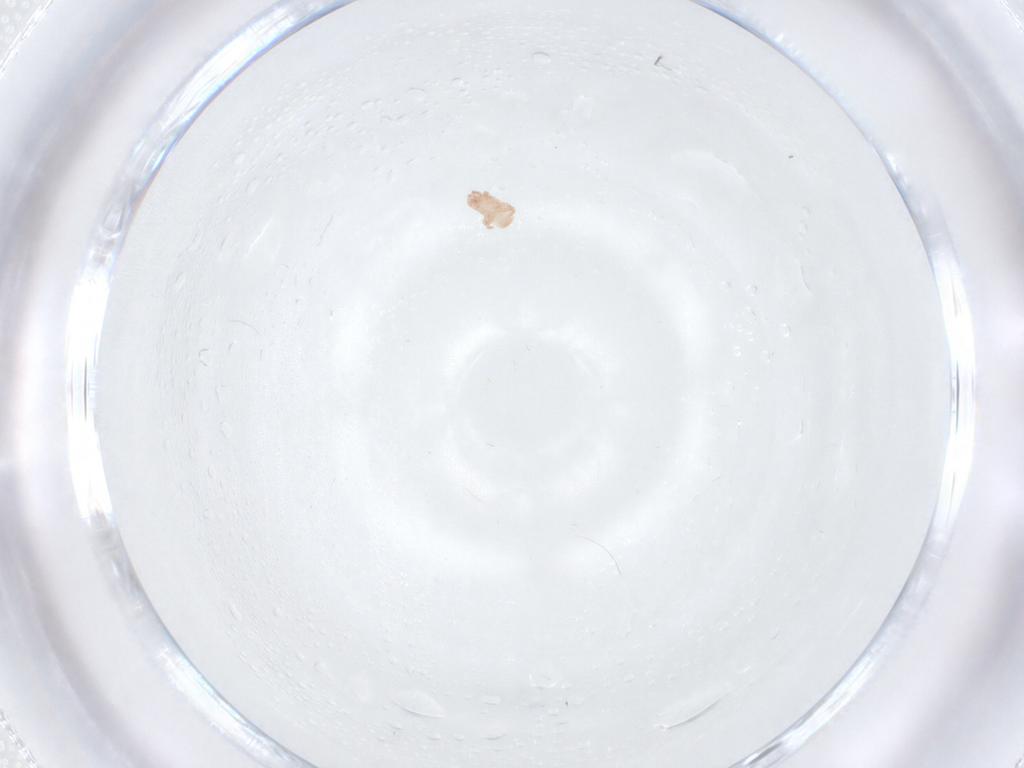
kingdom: Animalia
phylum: Arthropoda
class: Arachnida
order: Mesostigmata
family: Digamasellidae
